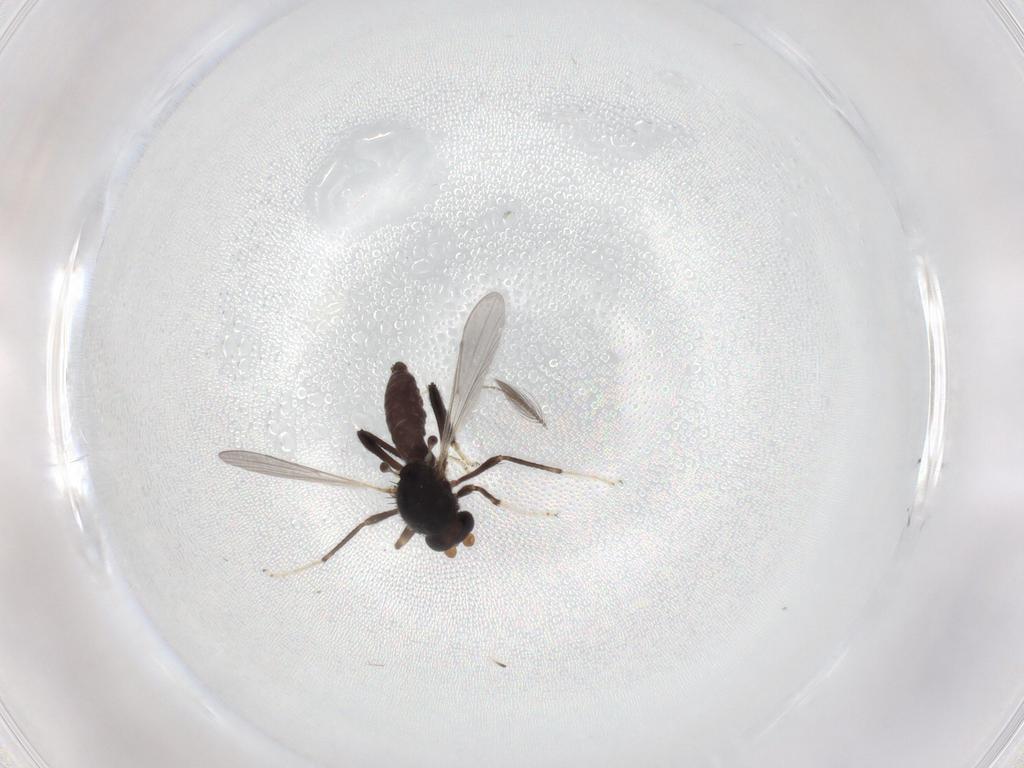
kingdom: Animalia
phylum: Arthropoda
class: Insecta
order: Diptera
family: Ceratopogonidae
